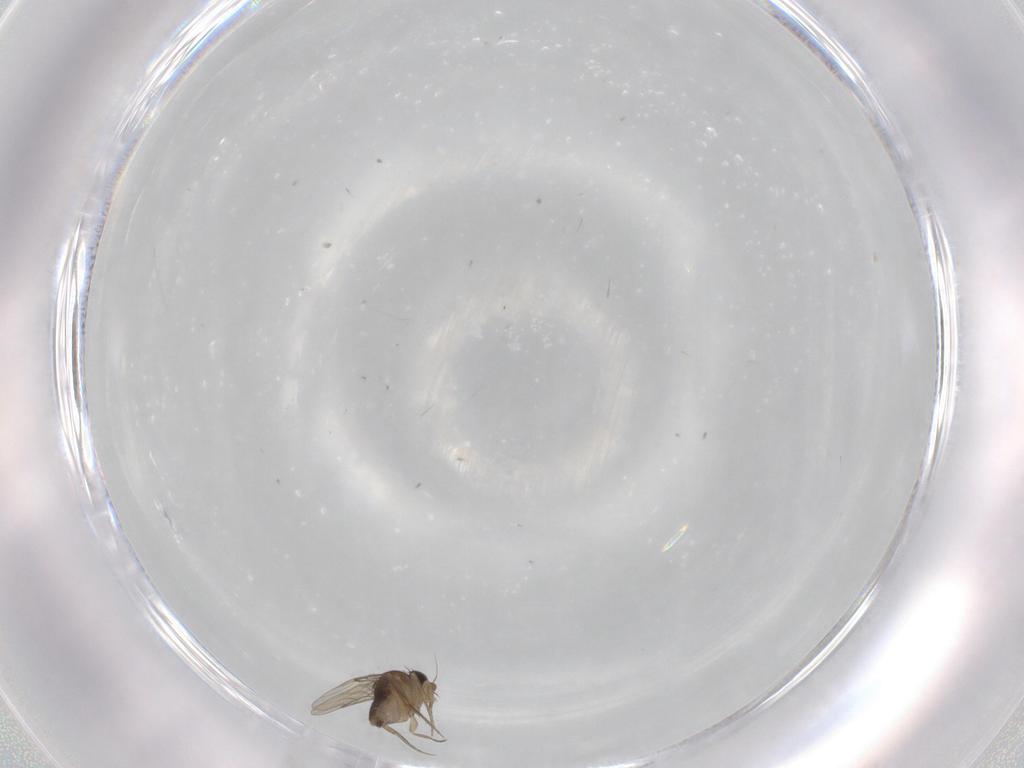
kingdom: Animalia
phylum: Arthropoda
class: Insecta
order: Diptera
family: Phoridae
